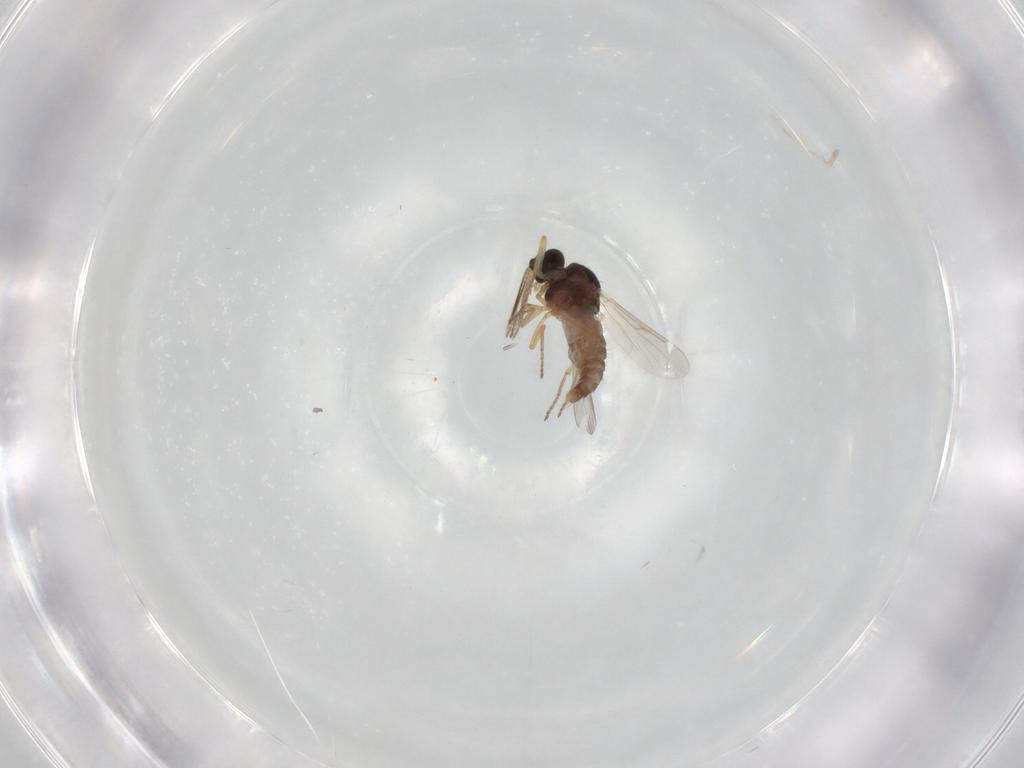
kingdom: Animalia
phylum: Arthropoda
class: Insecta
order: Diptera
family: Ceratopogonidae
